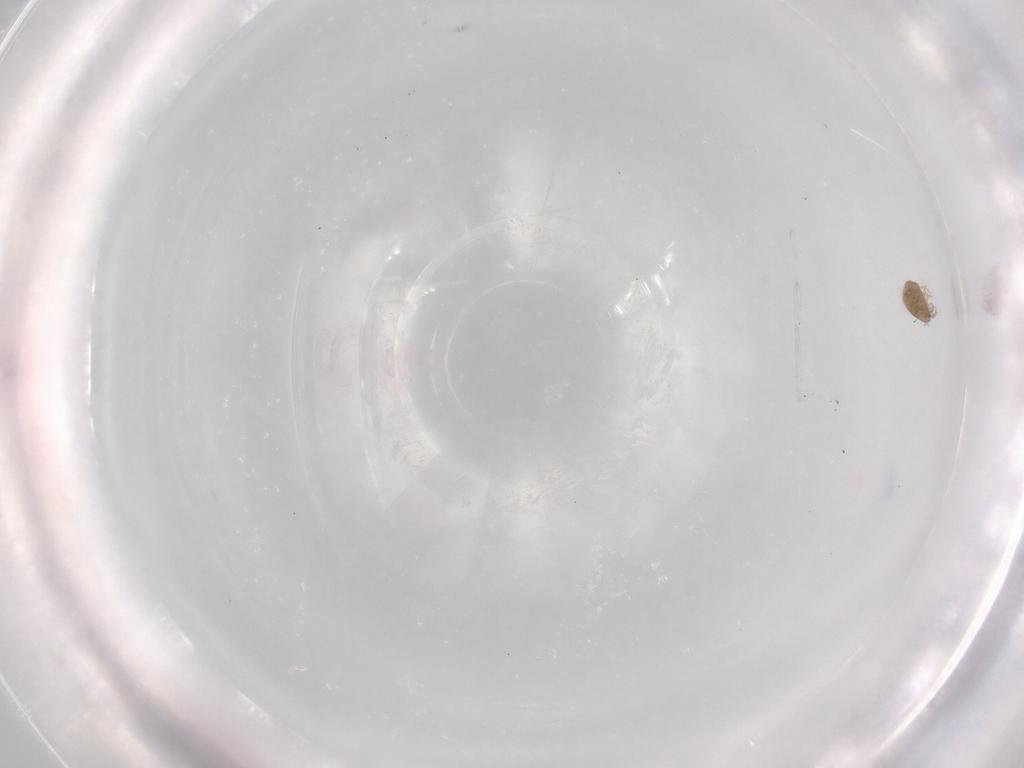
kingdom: Animalia
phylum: Arthropoda
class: Arachnida
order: Sarcoptiformes
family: Phenopelopidae
